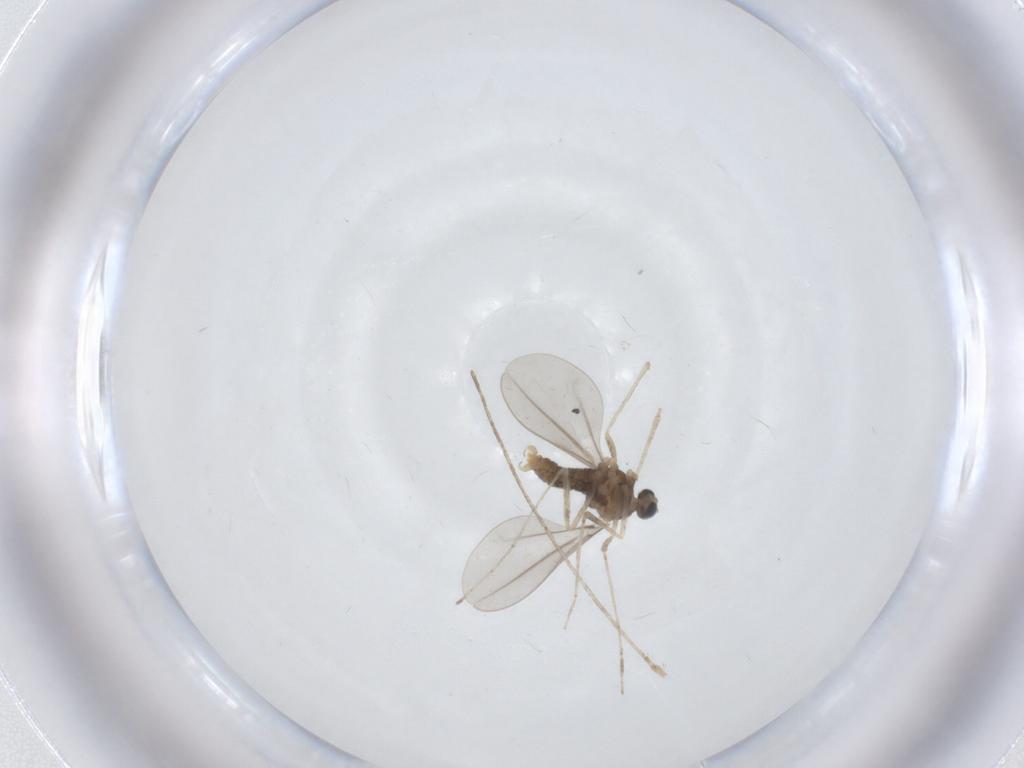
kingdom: Animalia
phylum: Arthropoda
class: Insecta
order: Diptera
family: Cecidomyiidae
